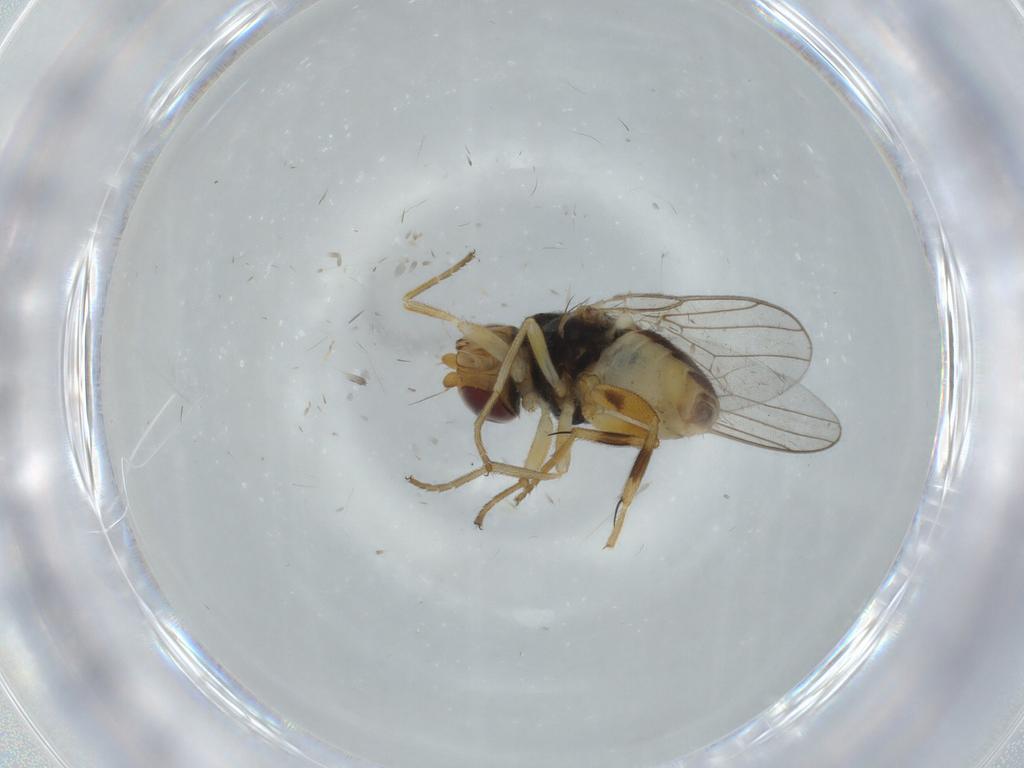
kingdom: Animalia
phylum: Arthropoda
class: Insecta
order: Diptera
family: Chloropidae
